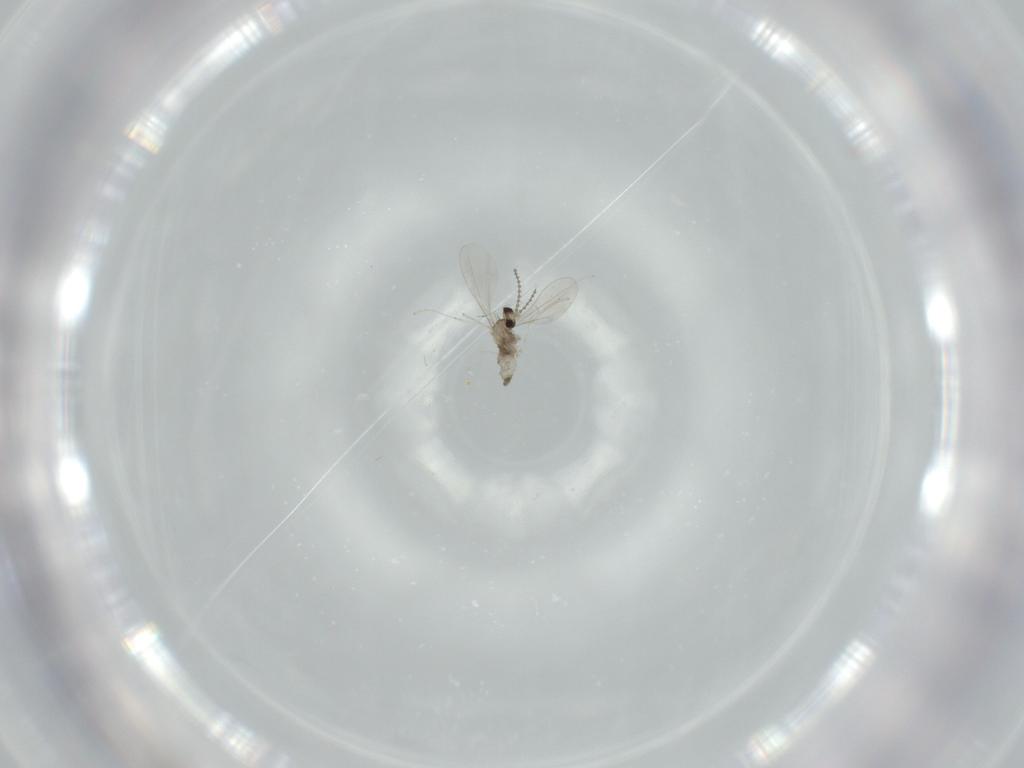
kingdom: Animalia
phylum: Arthropoda
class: Insecta
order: Diptera
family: Cecidomyiidae
